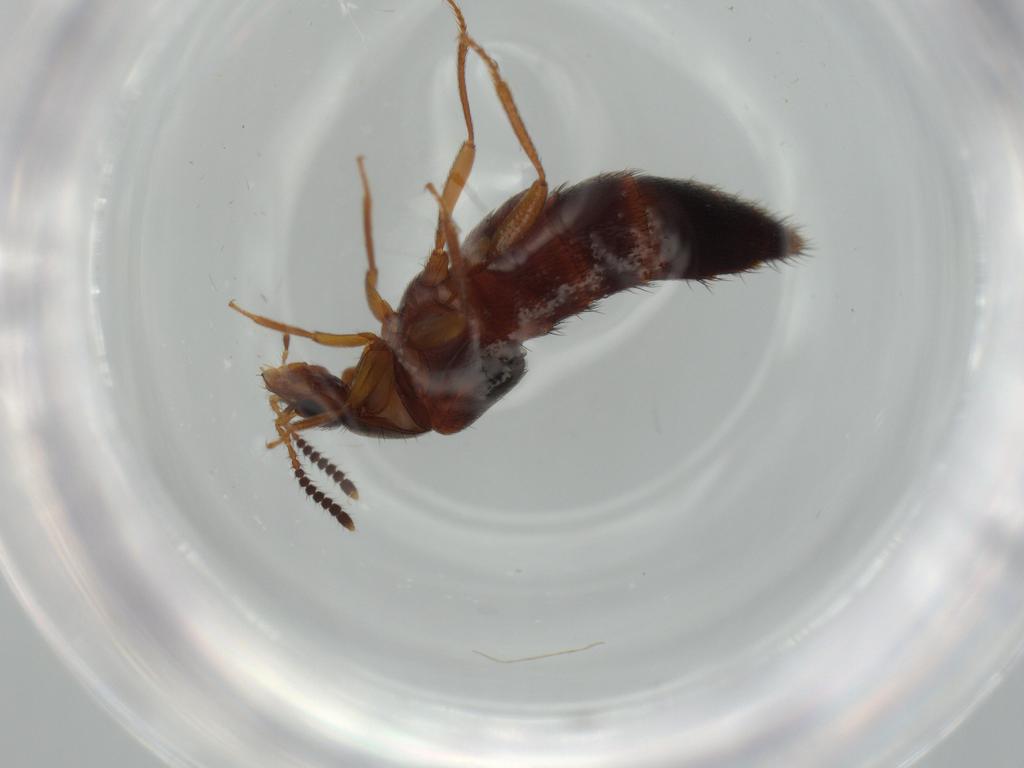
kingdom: Animalia
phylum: Arthropoda
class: Insecta
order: Coleoptera
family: Chrysomelidae
